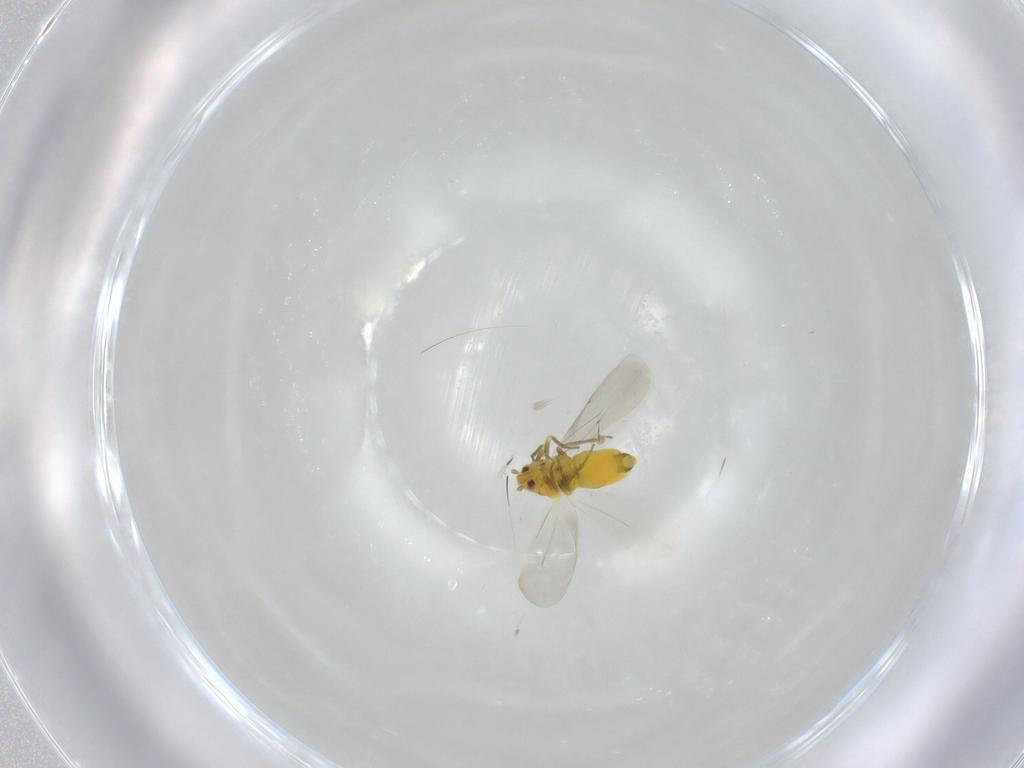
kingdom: Animalia
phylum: Arthropoda
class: Insecta
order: Hemiptera
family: Aleyrodidae
